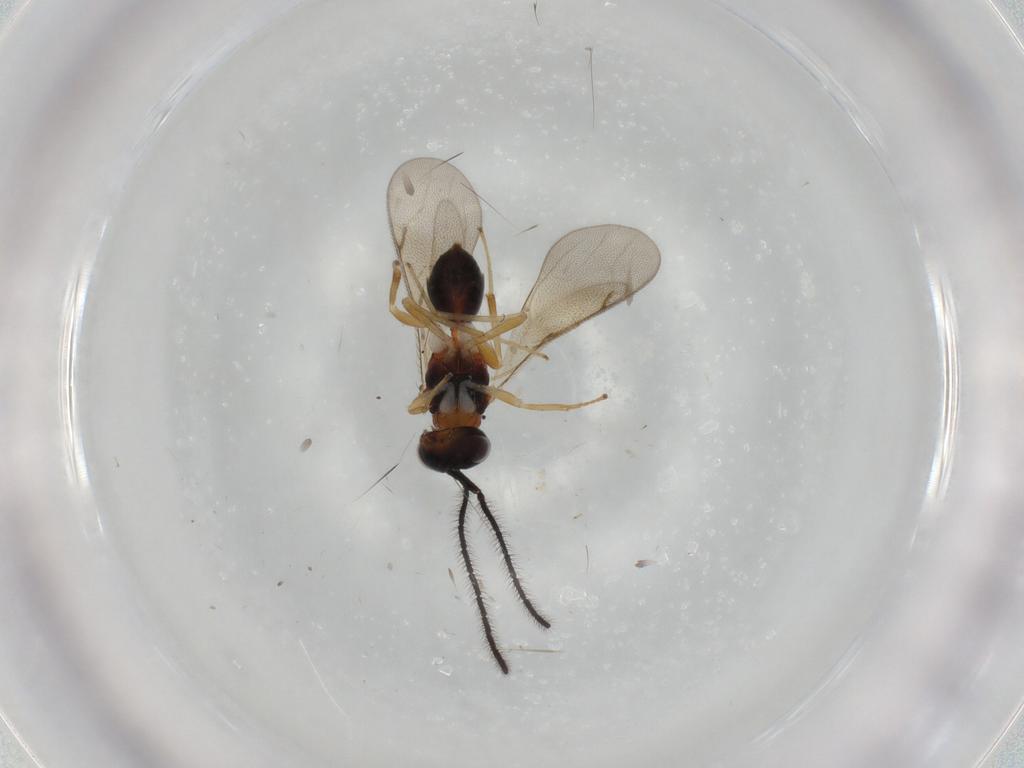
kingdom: Animalia
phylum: Arthropoda
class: Insecta
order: Hymenoptera
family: Diparidae
